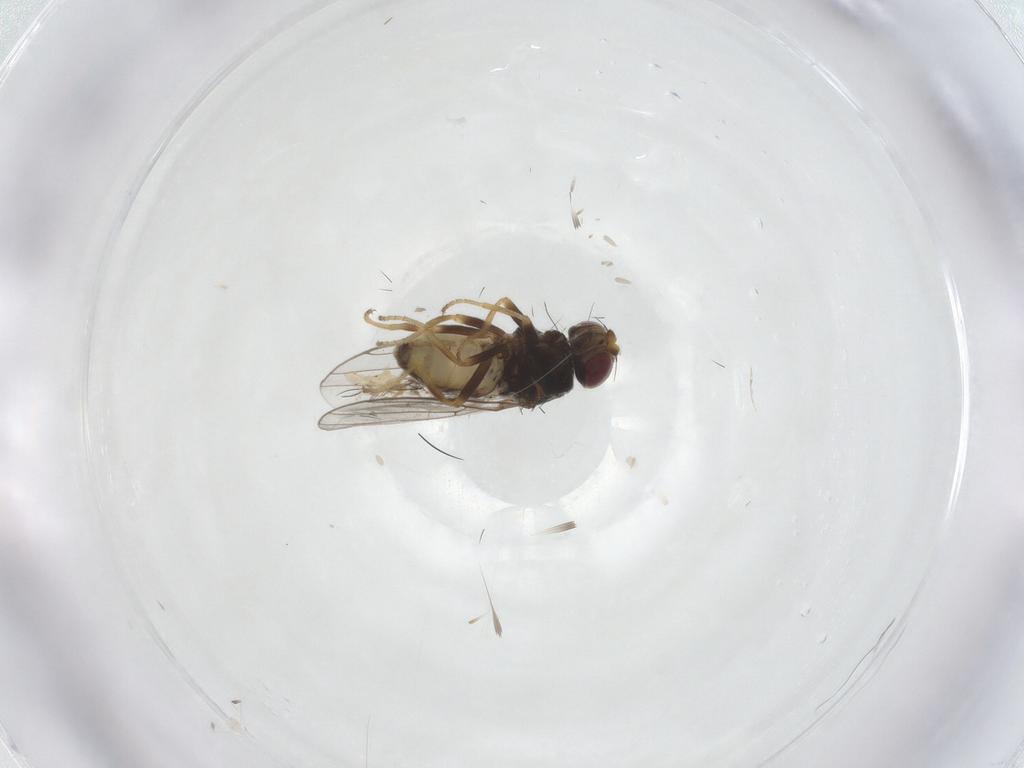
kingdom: Animalia
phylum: Arthropoda
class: Insecta
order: Diptera
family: Chloropidae
